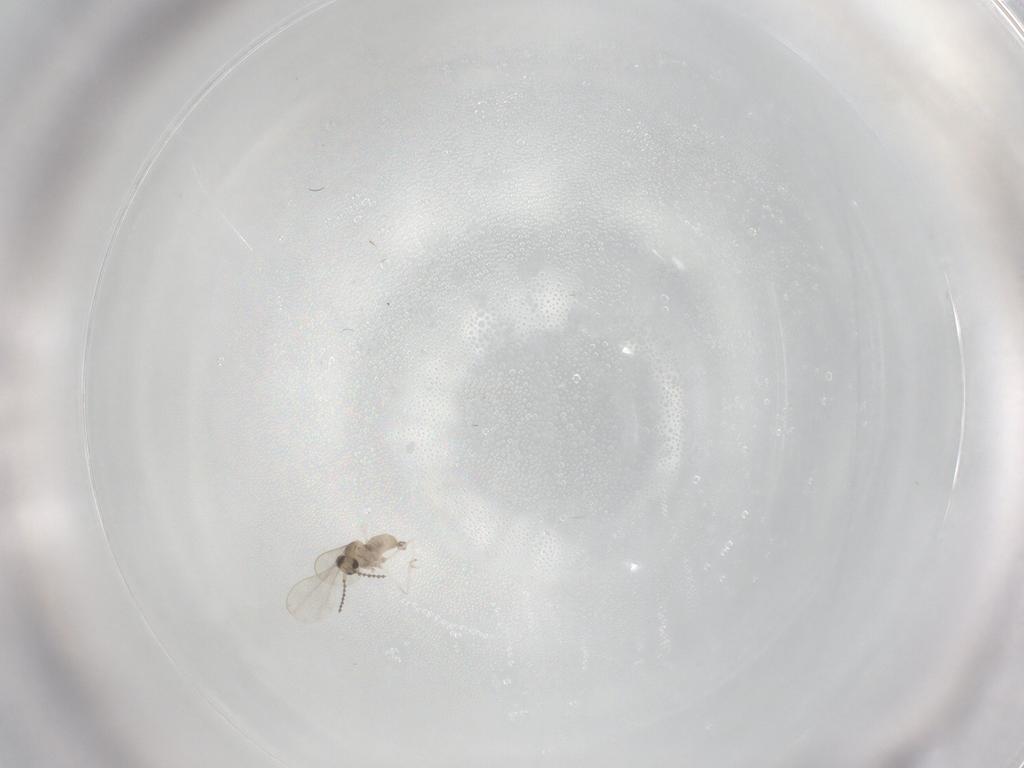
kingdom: Animalia
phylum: Arthropoda
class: Insecta
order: Diptera
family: Cecidomyiidae
